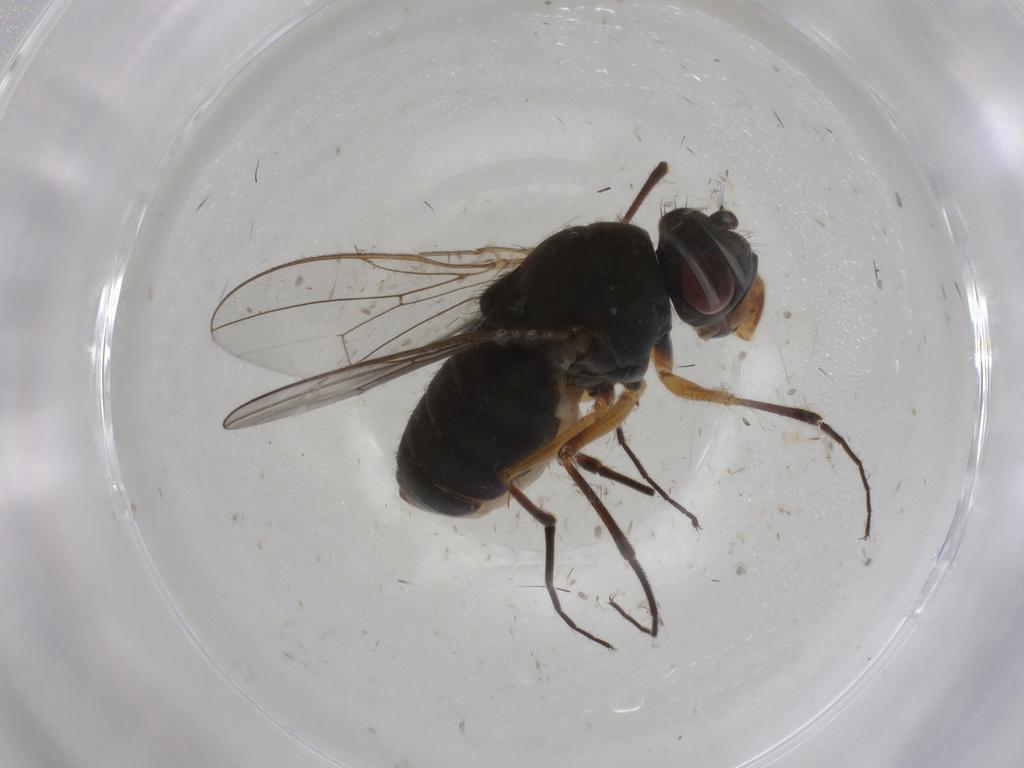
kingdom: Animalia
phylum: Arthropoda
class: Insecta
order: Diptera
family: Ephydridae
